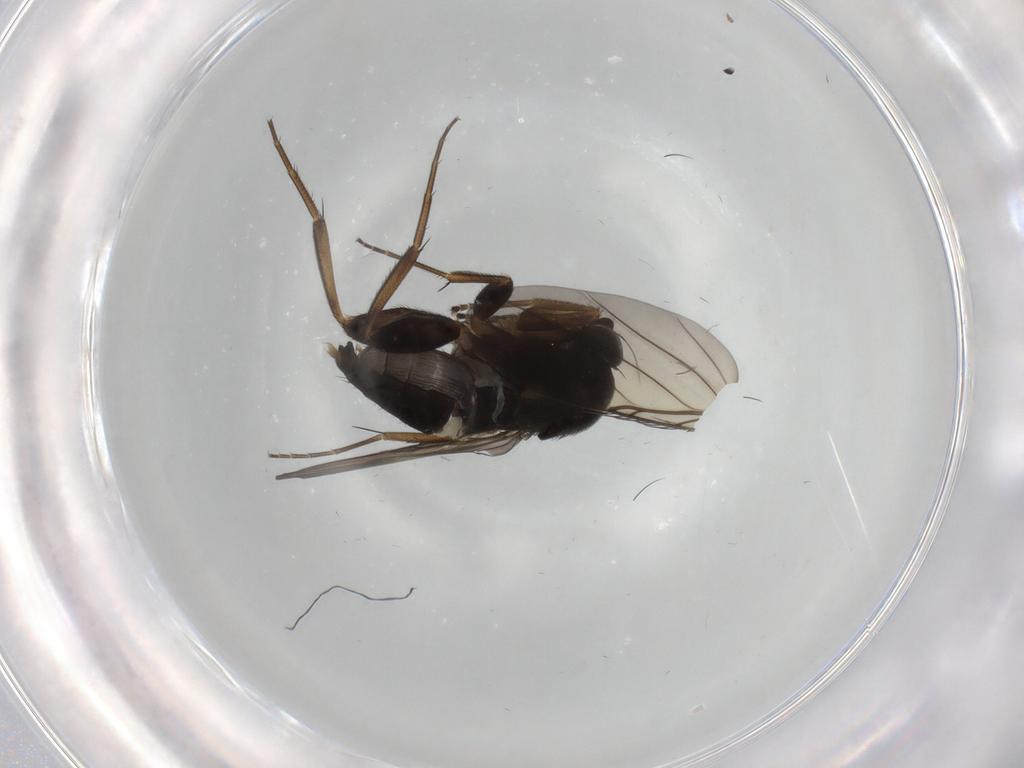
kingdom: Animalia
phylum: Arthropoda
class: Insecta
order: Diptera
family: Phoridae
